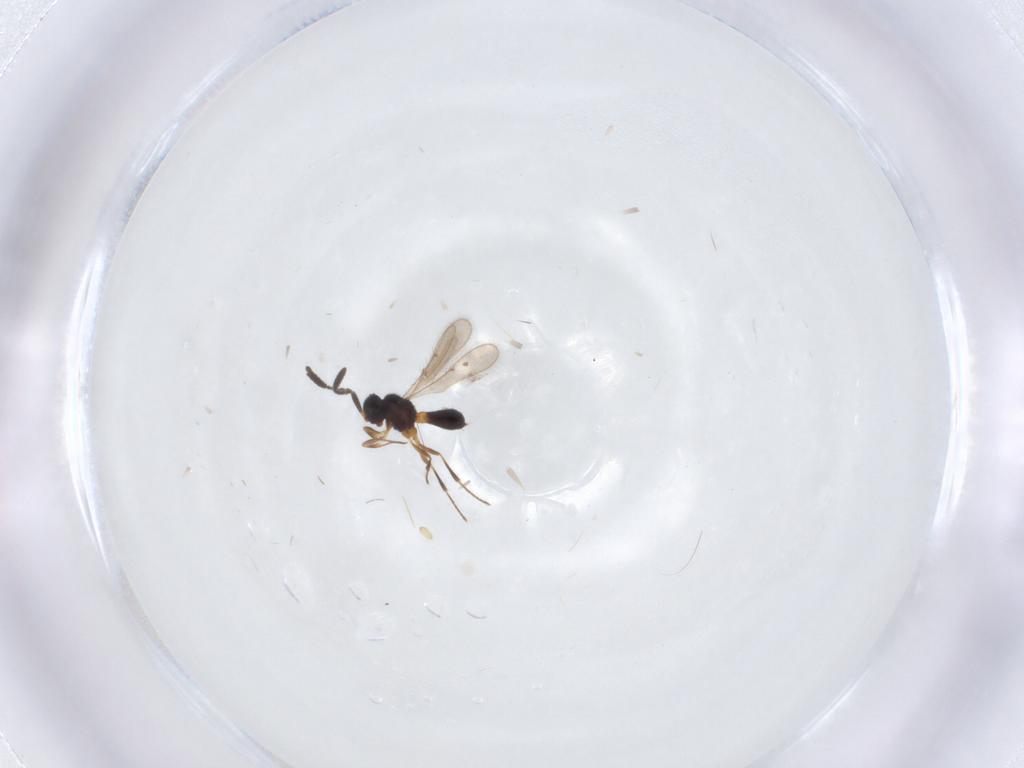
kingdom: Animalia
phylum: Arthropoda
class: Insecta
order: Hymenoptera
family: Scelionidae
